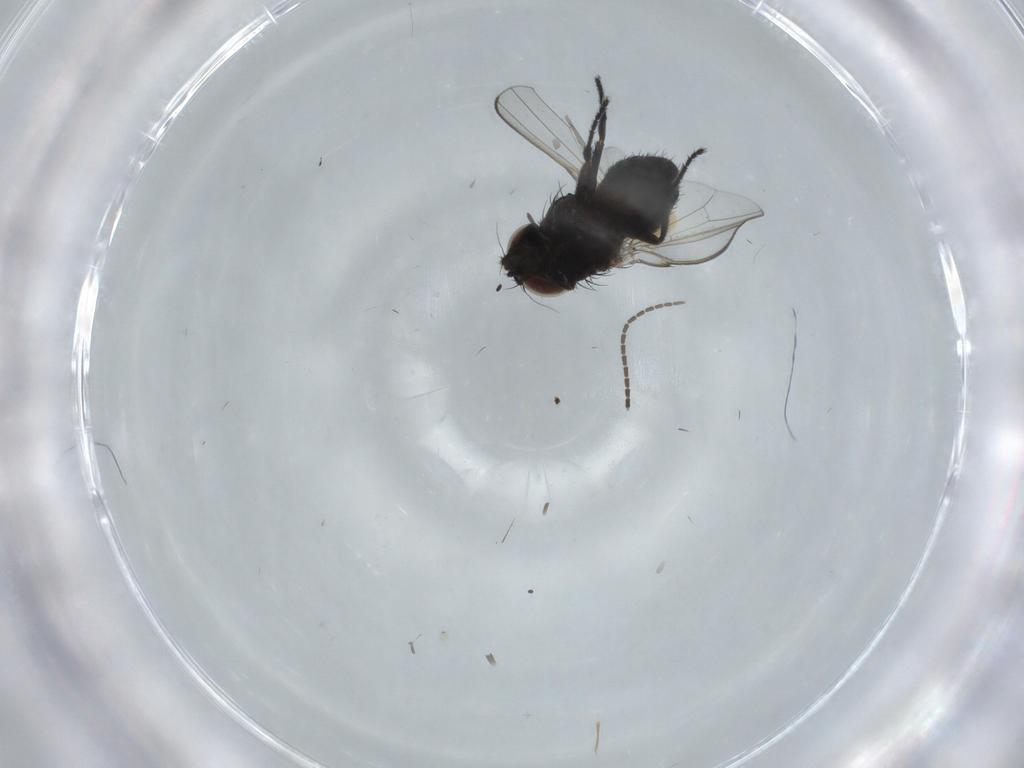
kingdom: Animalia
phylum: Arthropoda
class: Insecta
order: Diptera
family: Milichiidae
